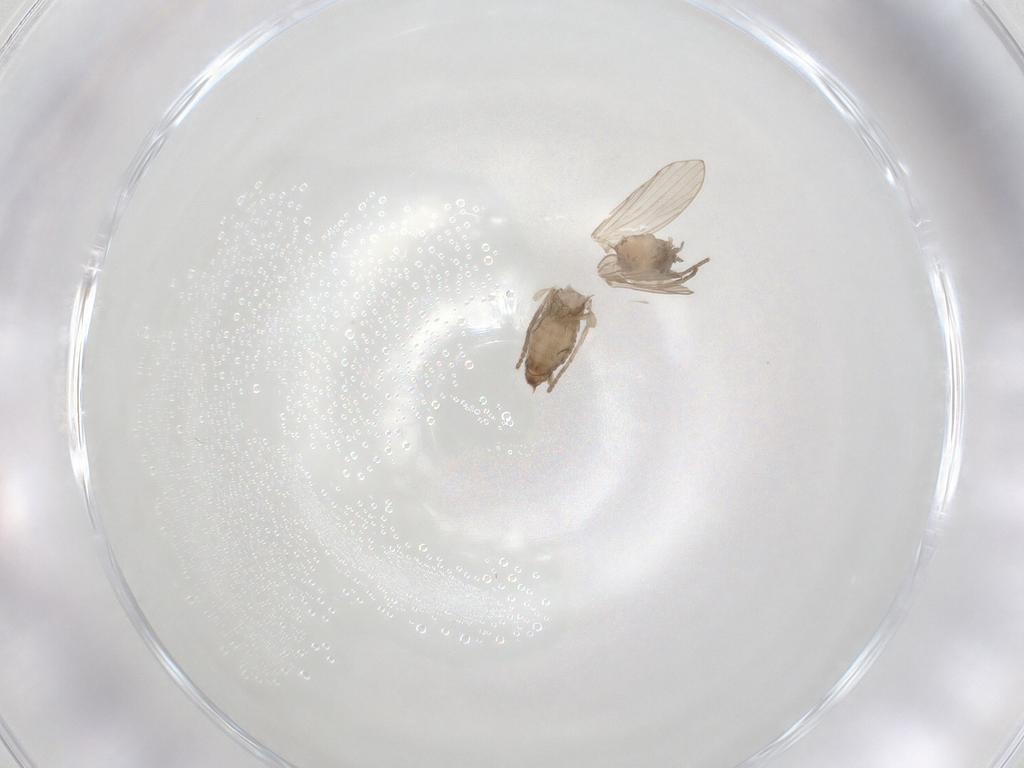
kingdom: Animalia
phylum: Arthropoda
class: Insecta
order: Diptera
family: Psychodidae
